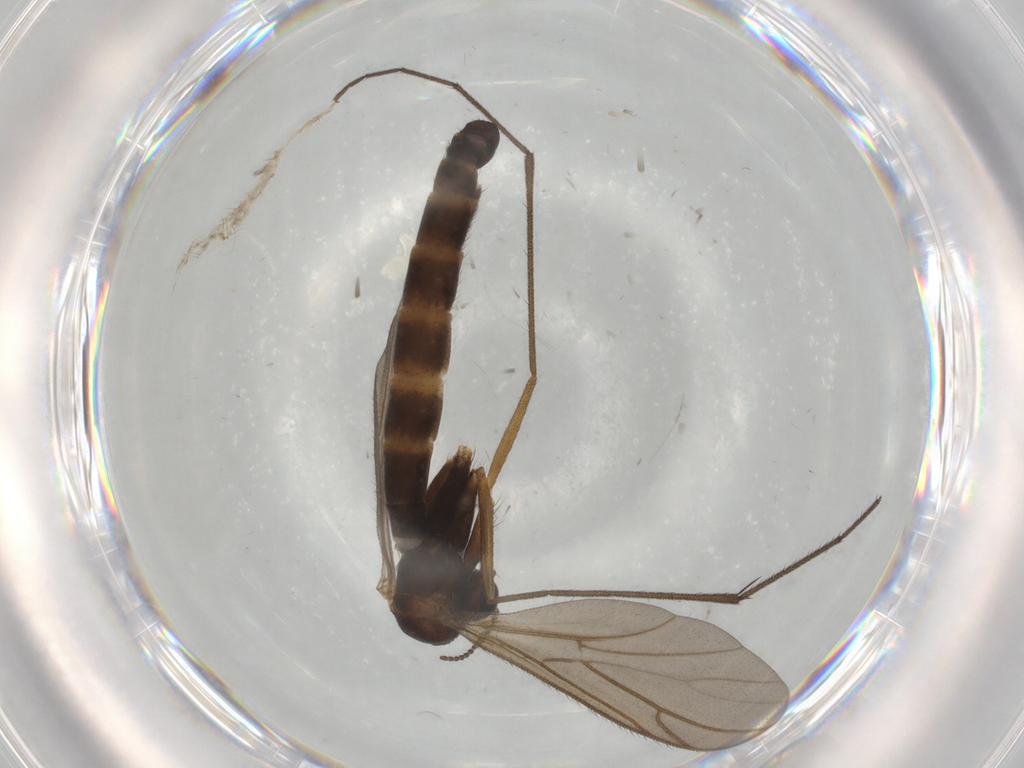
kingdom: Animalia
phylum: Arthropoda
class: Insecta
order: Diptera
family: Ditomyiidae
